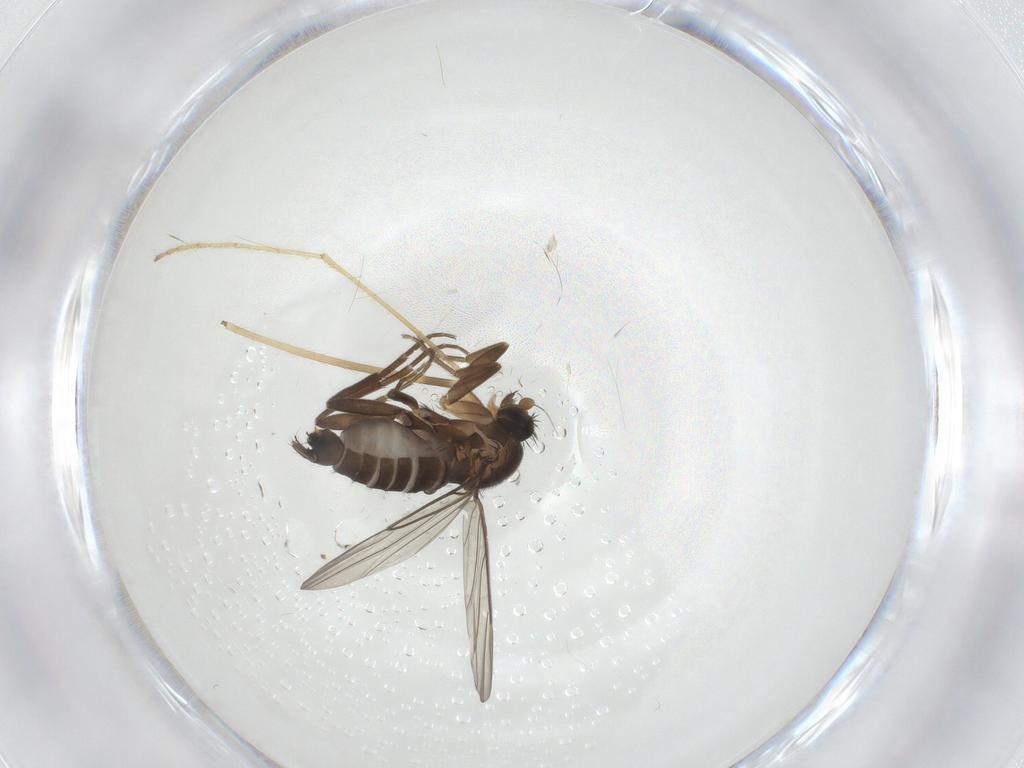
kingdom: Animalia
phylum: Arthropoda
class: Insecta
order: Diptera
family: Limoniidae
